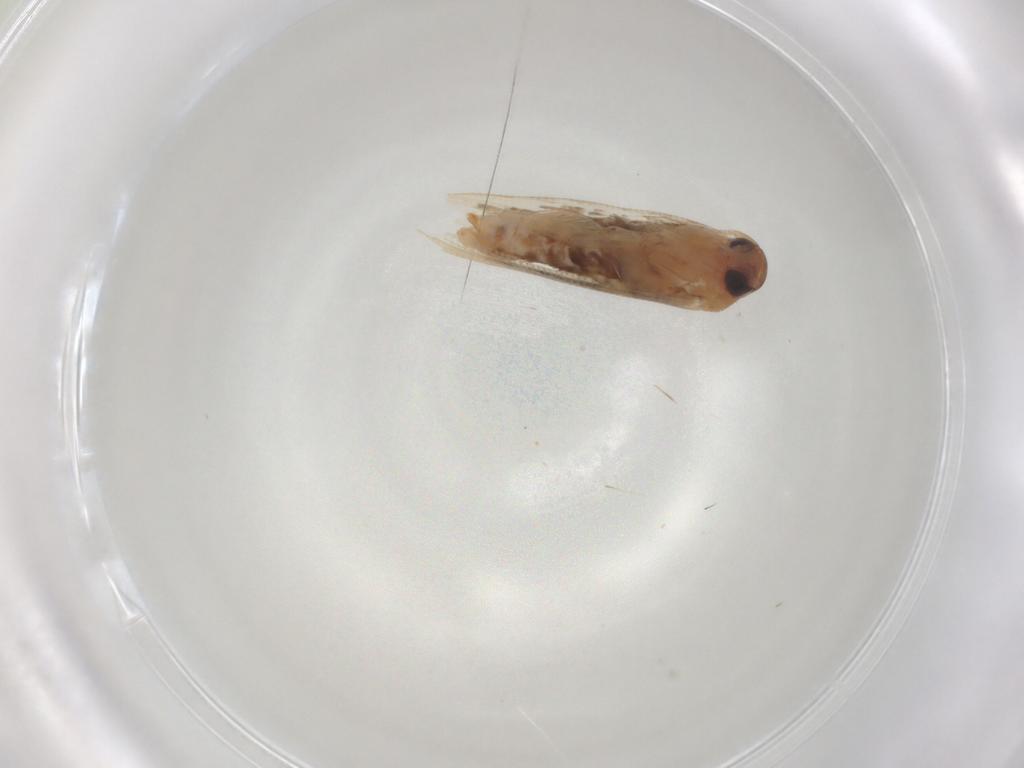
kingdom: Animalia
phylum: Arthropoda
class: Insecta
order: Lepidoptera
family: Cosmopterigidae
